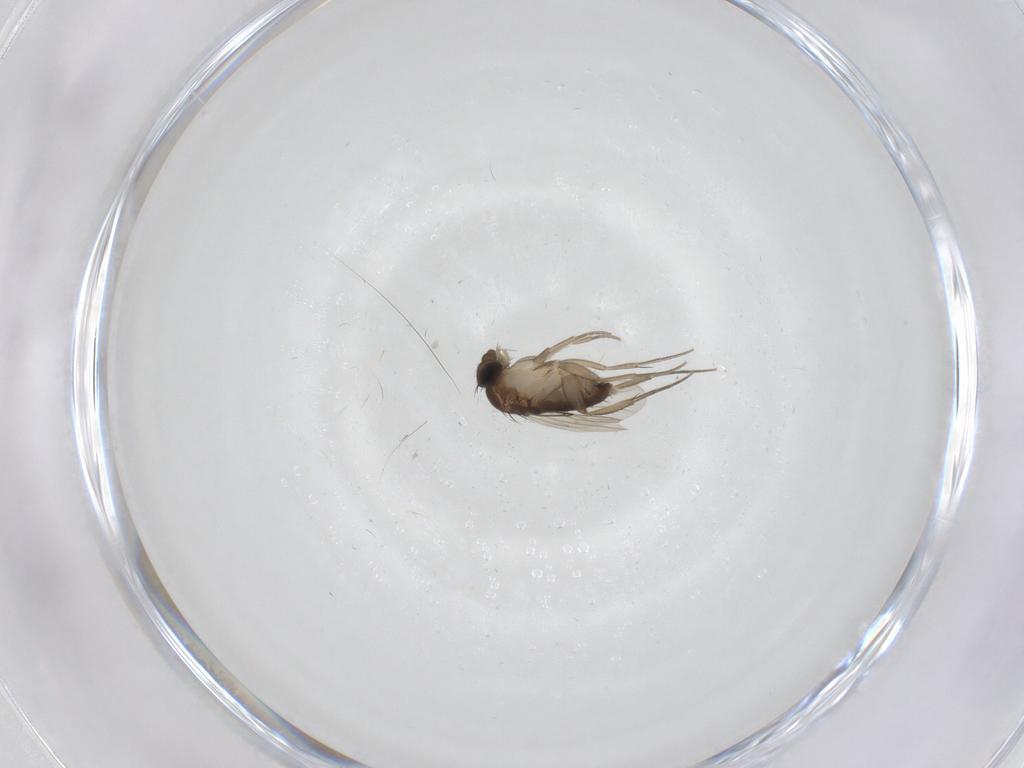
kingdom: Animalia
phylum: Arthropoda
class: Insecta
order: Diptera
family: Phoridae
